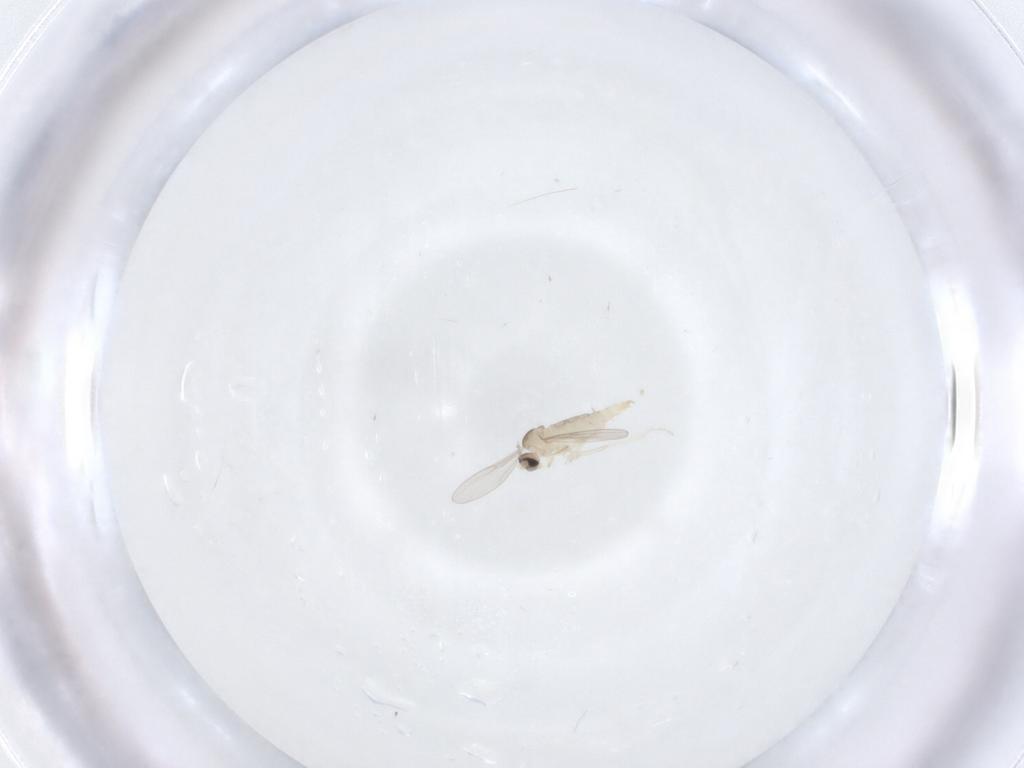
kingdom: Animalia
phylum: Arthropoda
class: Insecta
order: Diptera
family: Cecidomyiidae
